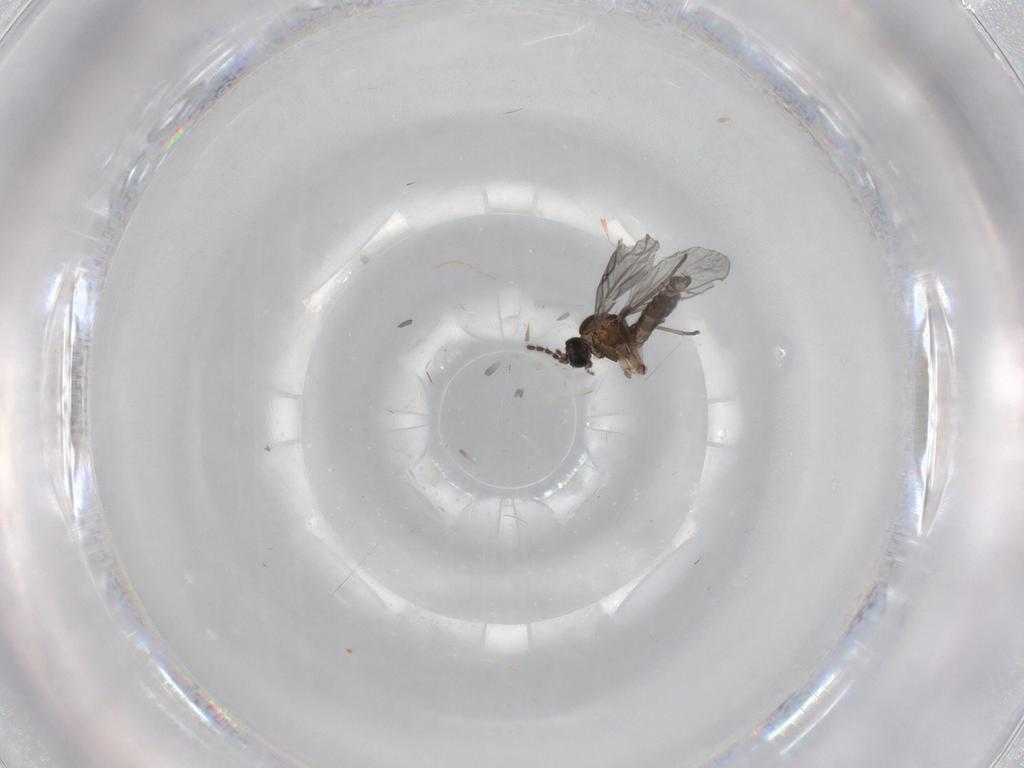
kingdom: Animalia
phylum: Arthropoda
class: Insecta
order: Diptera
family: Sciaridae
